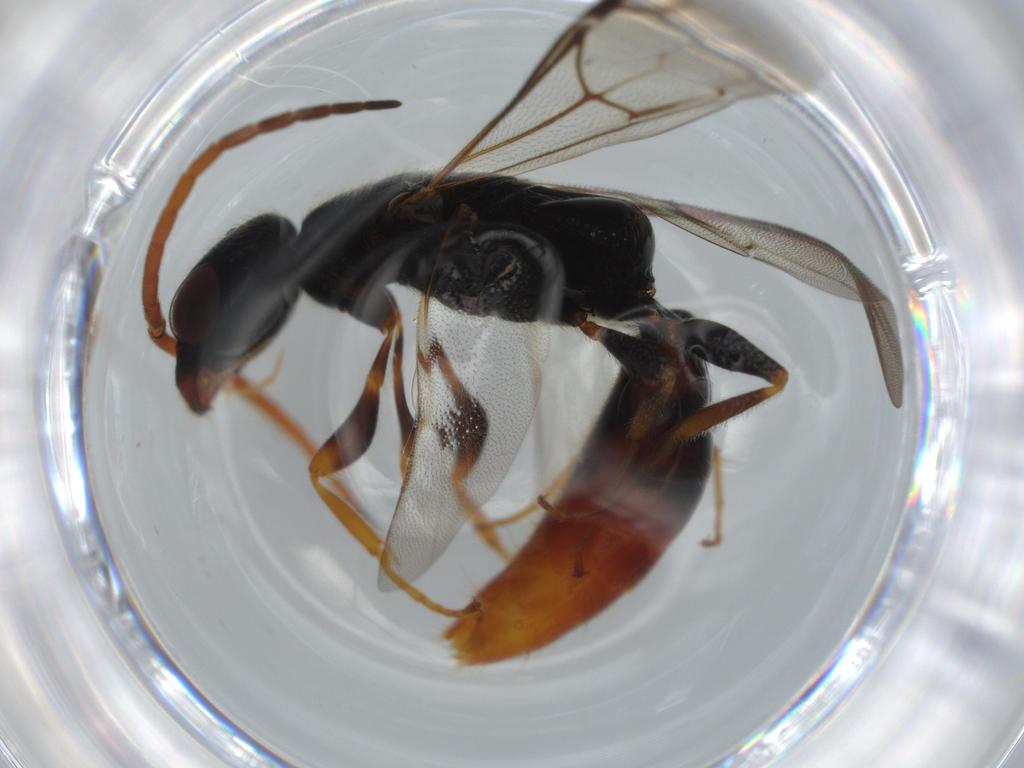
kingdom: Animalia
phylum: Arthropoda
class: Insecta
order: Hymenoptera
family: Bethylidae
